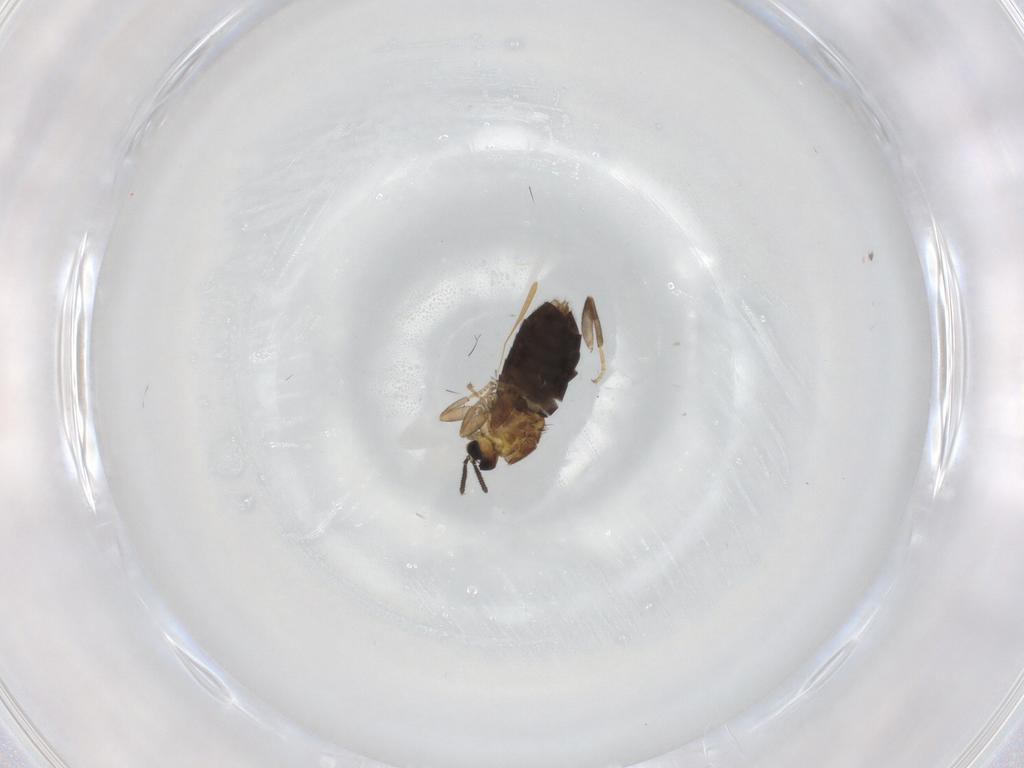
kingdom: Animalia
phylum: Arthropoda
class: Insecta
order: Diptera
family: Scatopsidae
